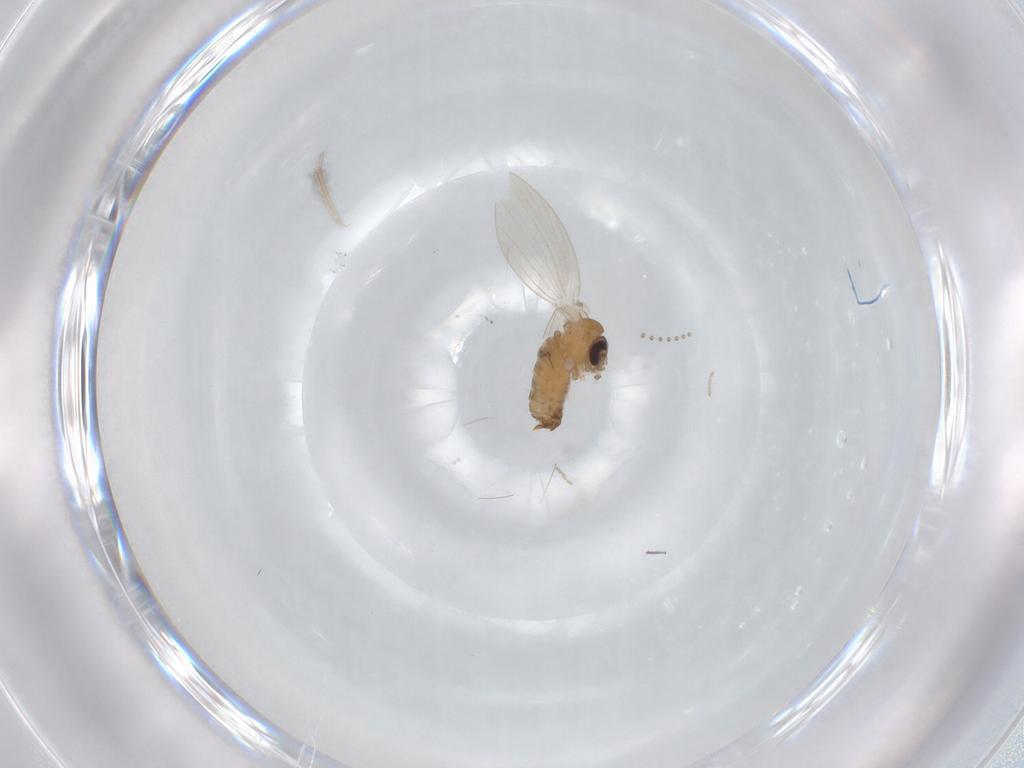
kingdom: Animalia
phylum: Arthropoda
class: Insecta
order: Diptera
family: Psychodidae
